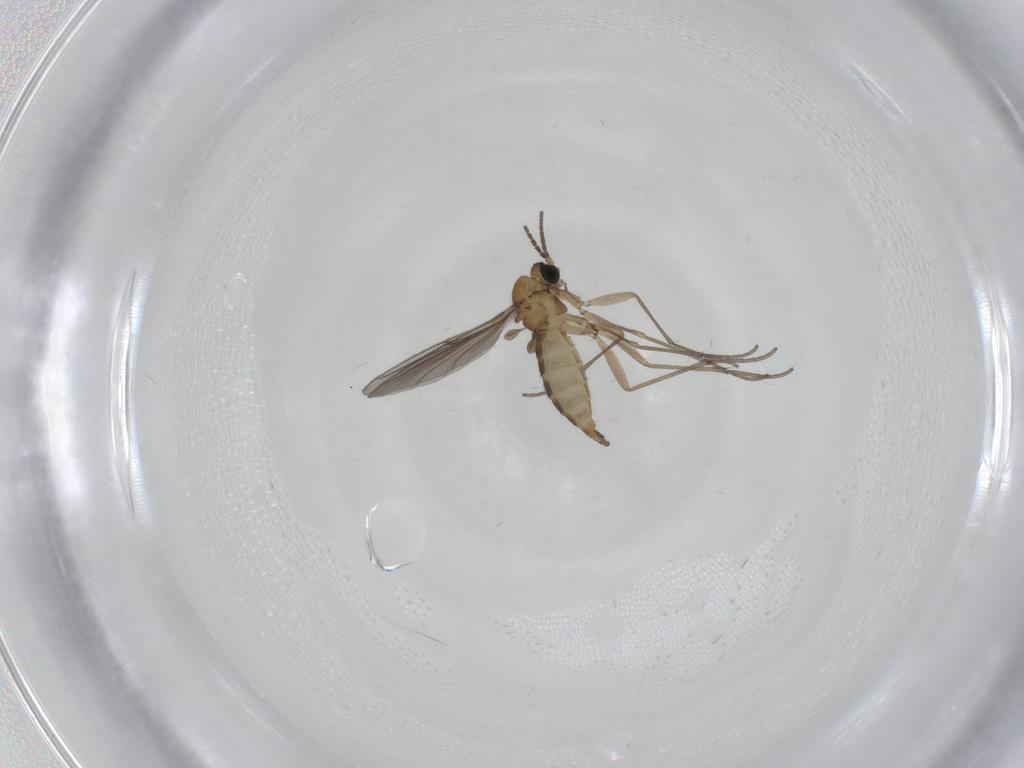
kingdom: Animalia
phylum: Arthropoda
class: Insecta
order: Diptera
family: Sciaridae
